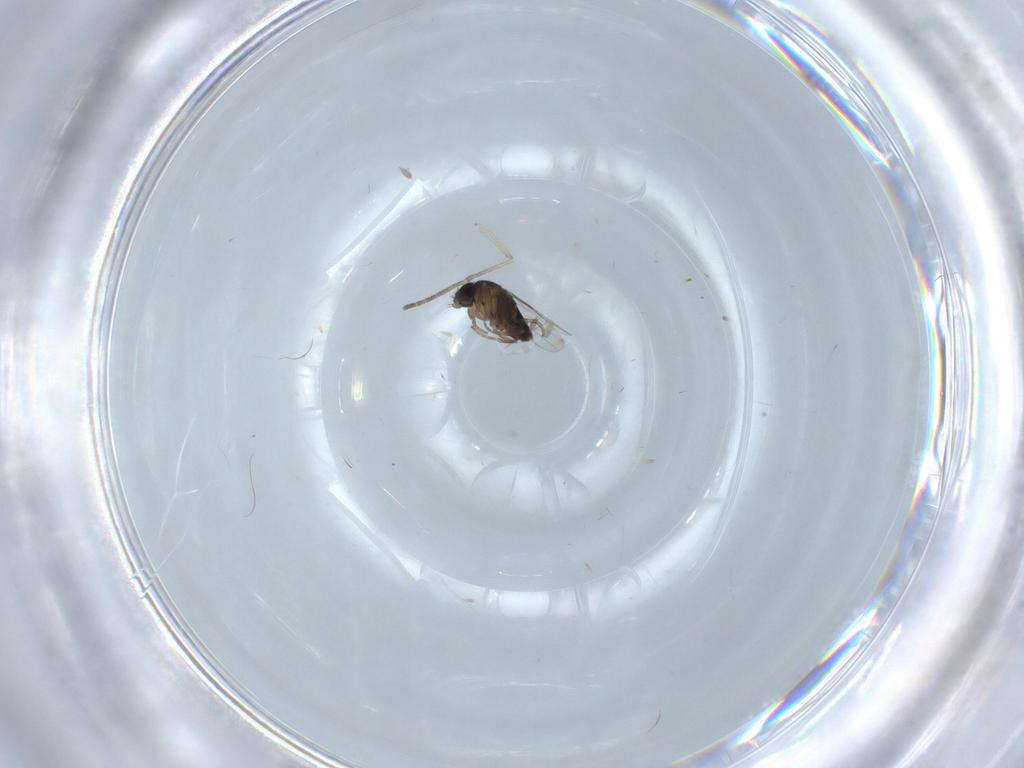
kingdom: Animalia
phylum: Arthropoda
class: Insecta
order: Diptera
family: Phoridae
